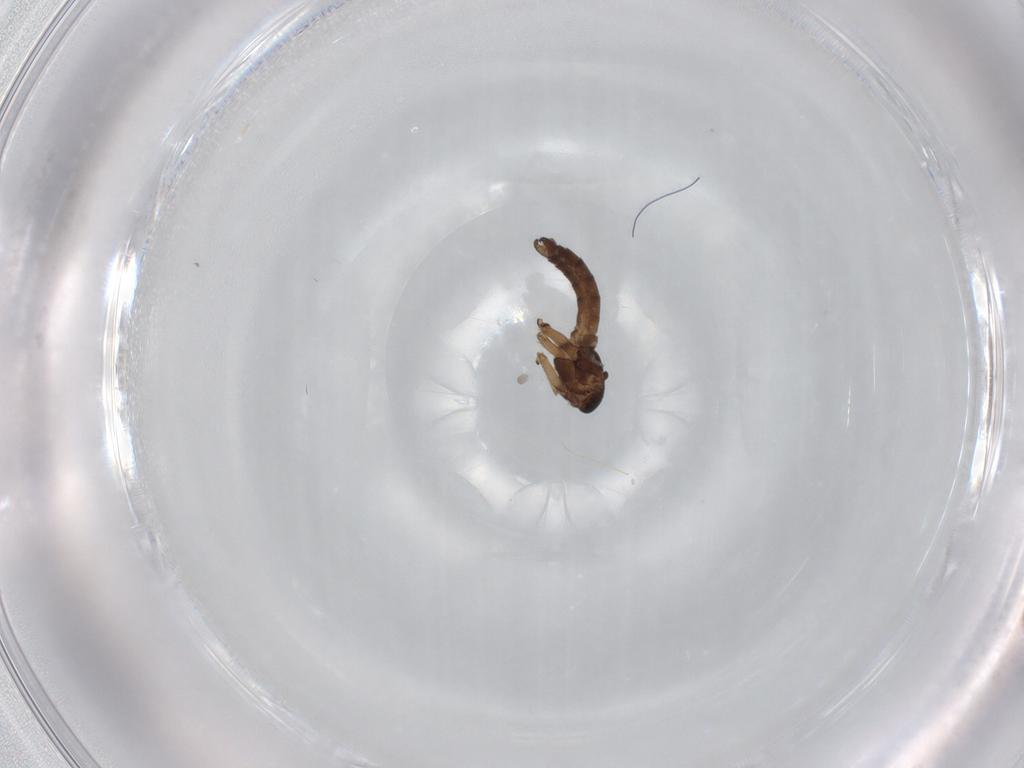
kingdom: Animalia
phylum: Arthropoda
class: Insecta
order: Diptera
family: Sciaridae
